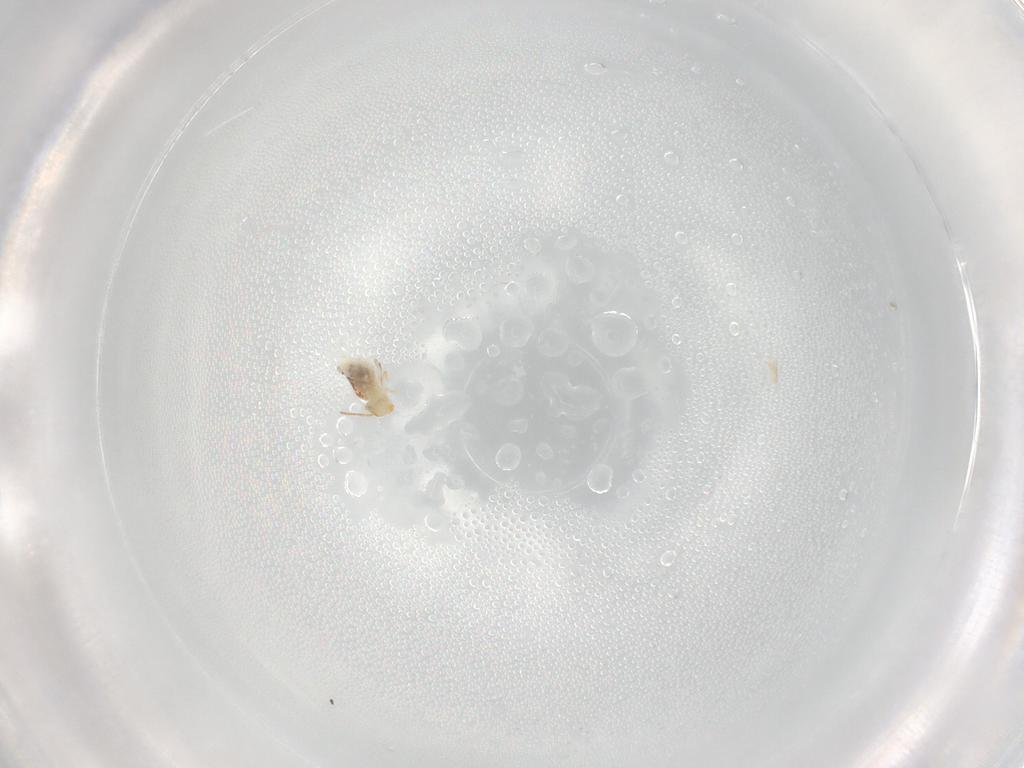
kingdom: Animalia
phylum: Arthropoda
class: Collembola
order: Symphypleona
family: Bourletiellidae
